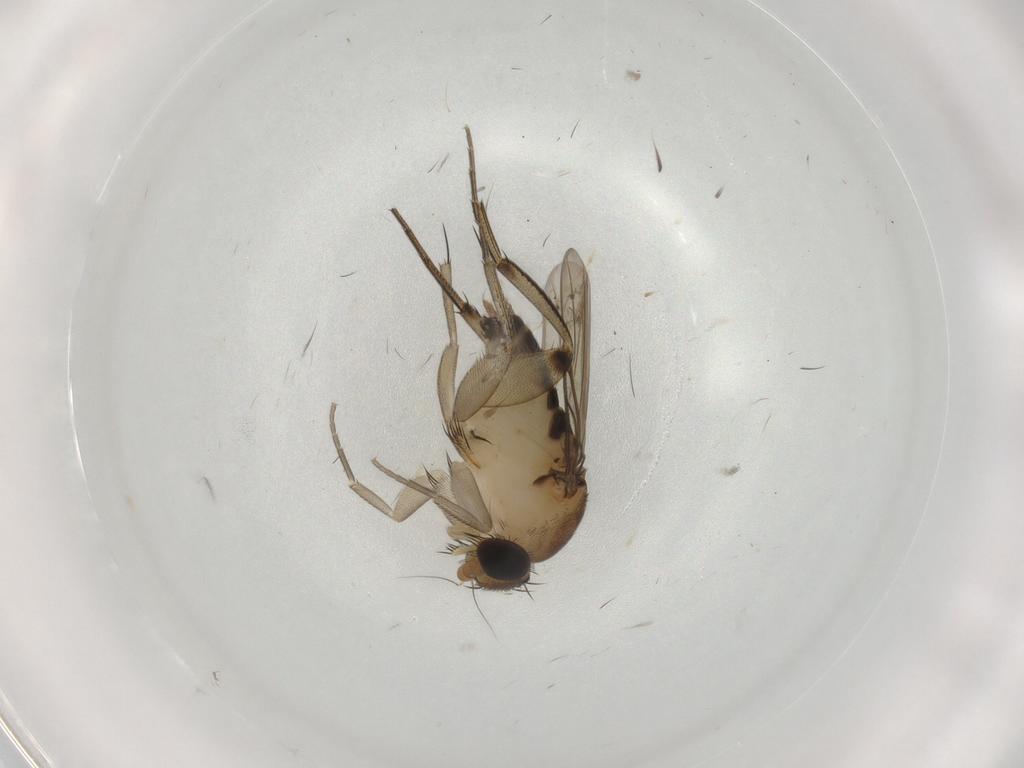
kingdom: Animalia
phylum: Arthropoda
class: Insecta
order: Diptera
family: Phoridae
